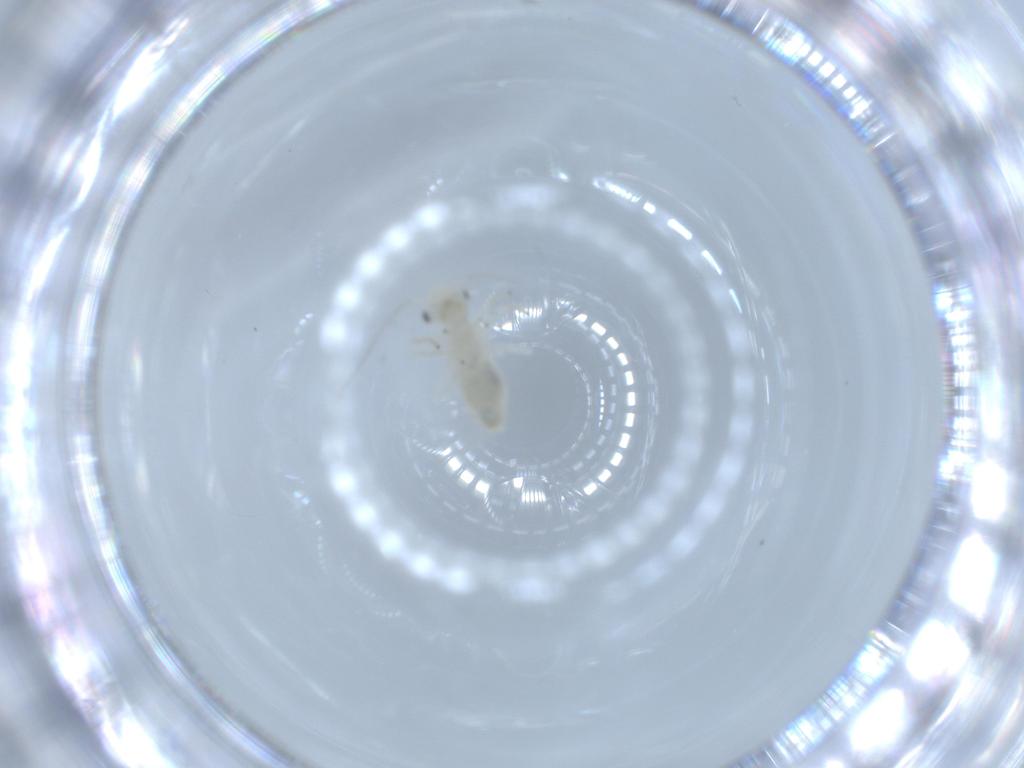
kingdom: Animalia
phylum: Arthropoda
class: Insecta
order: Psocodea
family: Caeciliusidae
